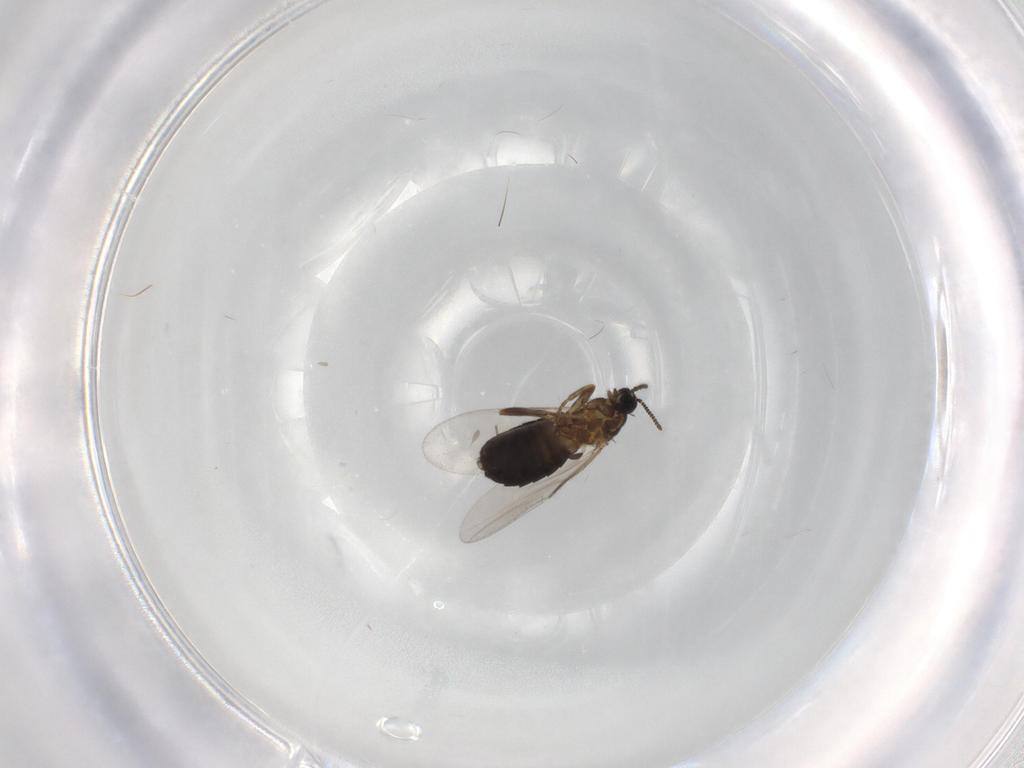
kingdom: Animalia
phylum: Arthropoda
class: Insecta
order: Diptera
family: Scatopsidae
